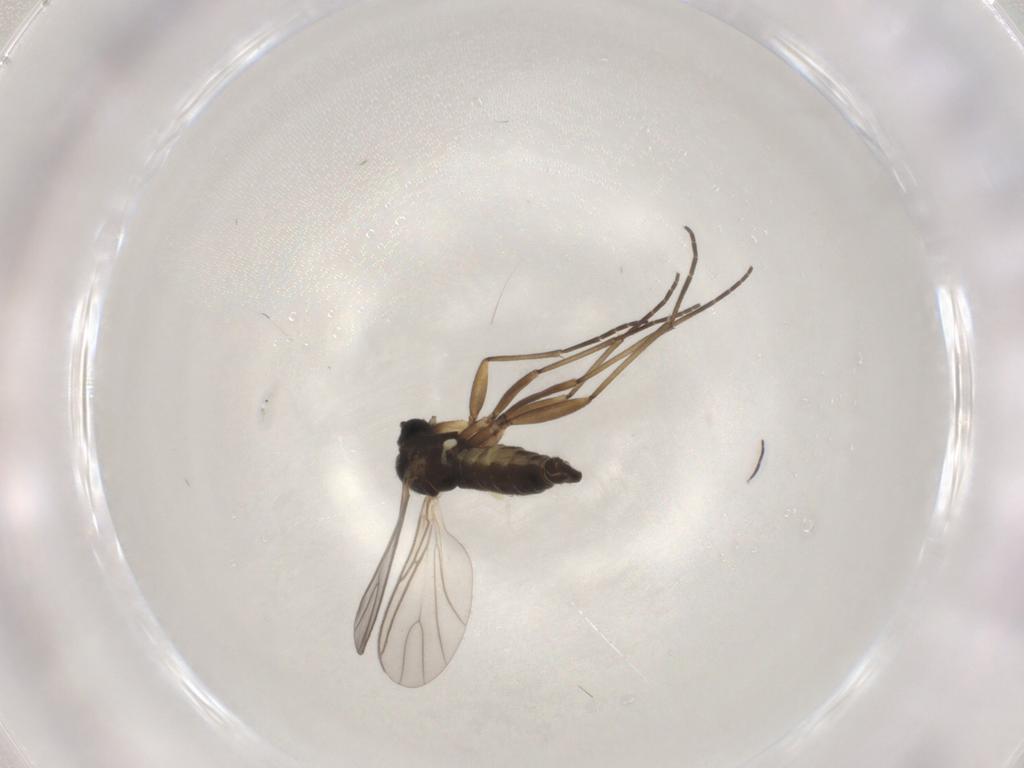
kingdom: Animalia
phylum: Arthropoda
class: Insecta
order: Diptera
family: Sciaridae
